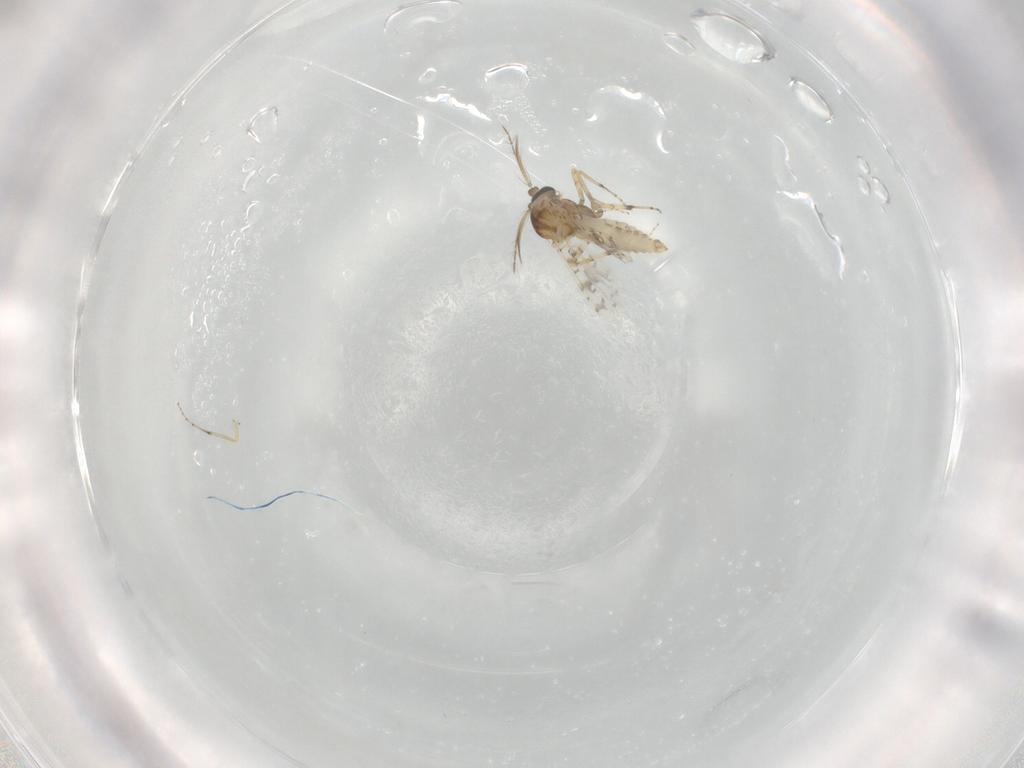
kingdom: Animalia
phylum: Arthropoda
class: Insecta
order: Diptera
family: Ceratopogonidae
